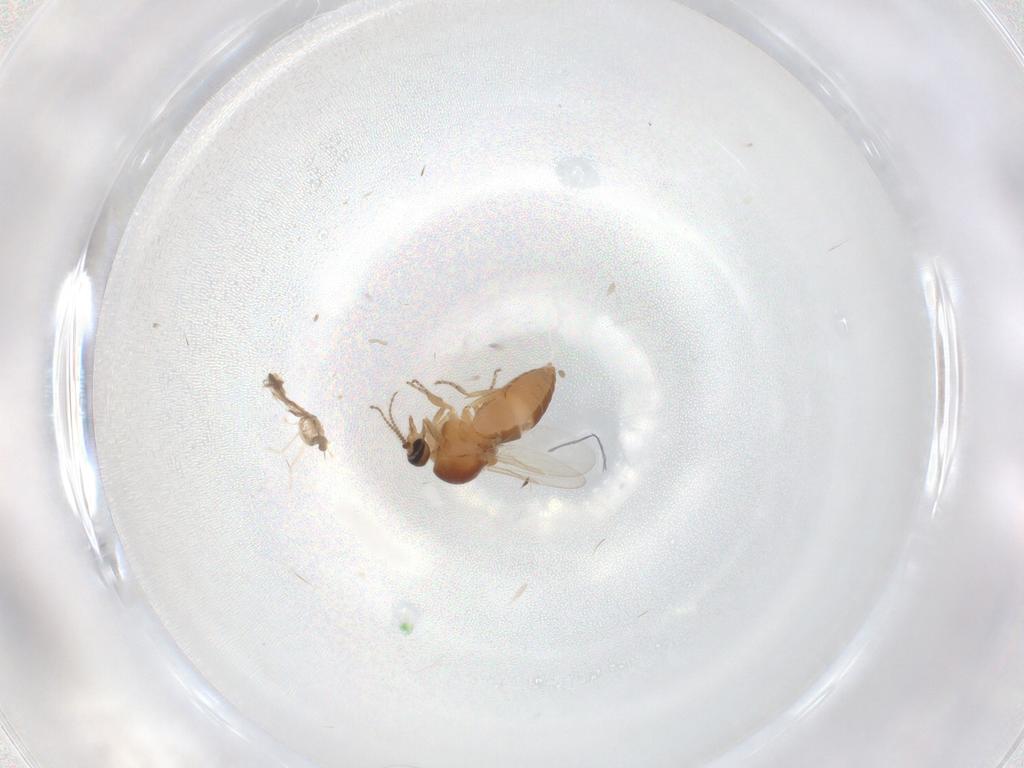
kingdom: Animalia
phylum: Arthropoda
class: Insecta
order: Diptera
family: Ceratopogonidae
